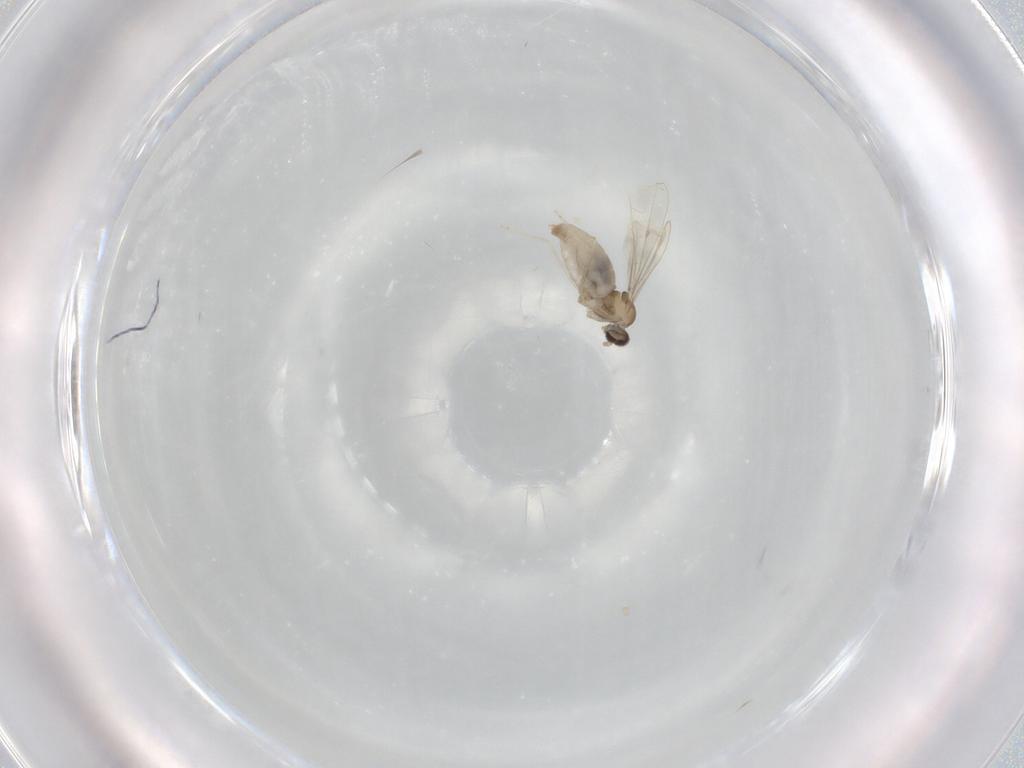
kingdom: Animalia
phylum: Arthropoda
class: Insecta
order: Diptera
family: Cecidomyiidae
